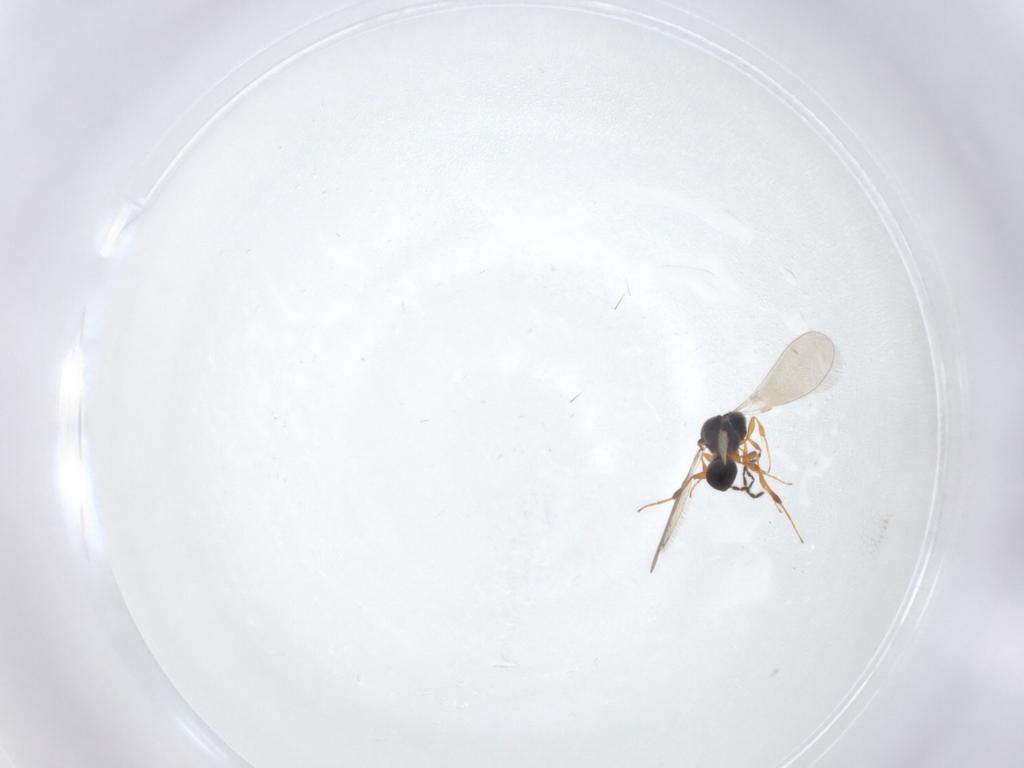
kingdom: Animalia
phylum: Arthropoda
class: Insecta
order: Hymenoptera
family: Platygastridae
